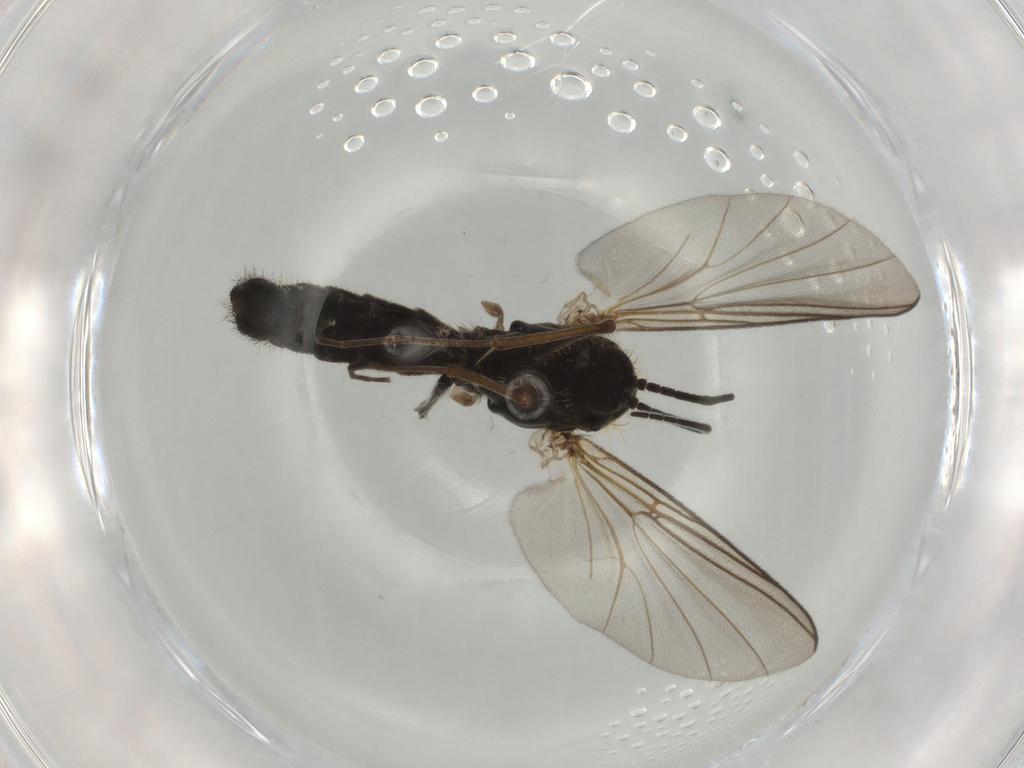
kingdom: Animalia
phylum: Arthropoda
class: Insecta
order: Diptera
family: Mycetophilidae
